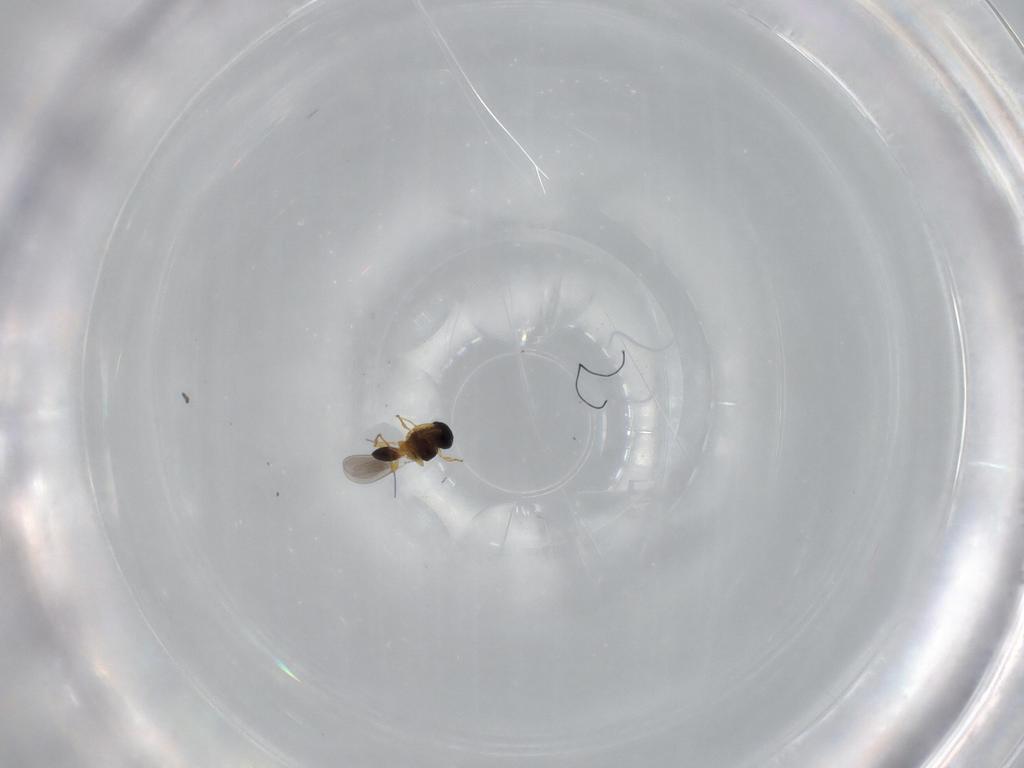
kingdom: Animalia
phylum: Arthropoda
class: Insecta
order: Hymenoptera
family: Platygastridae
